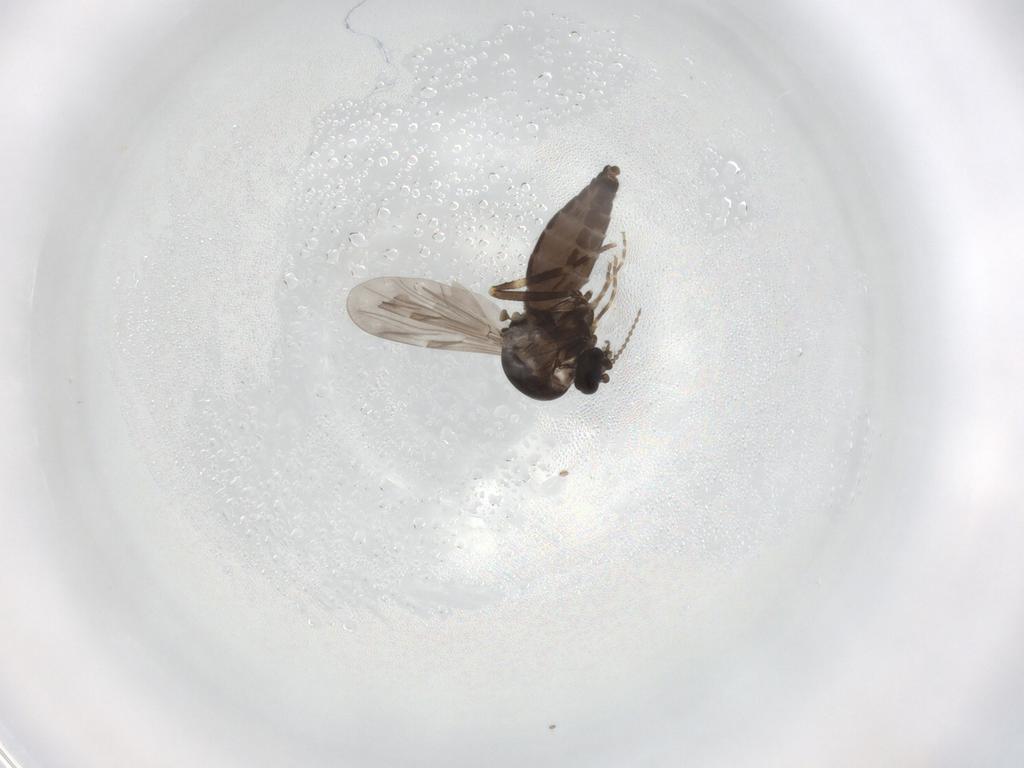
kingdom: Animalia
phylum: Arthropoda
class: Insecta
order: Diptera
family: Ceratopogonidae
